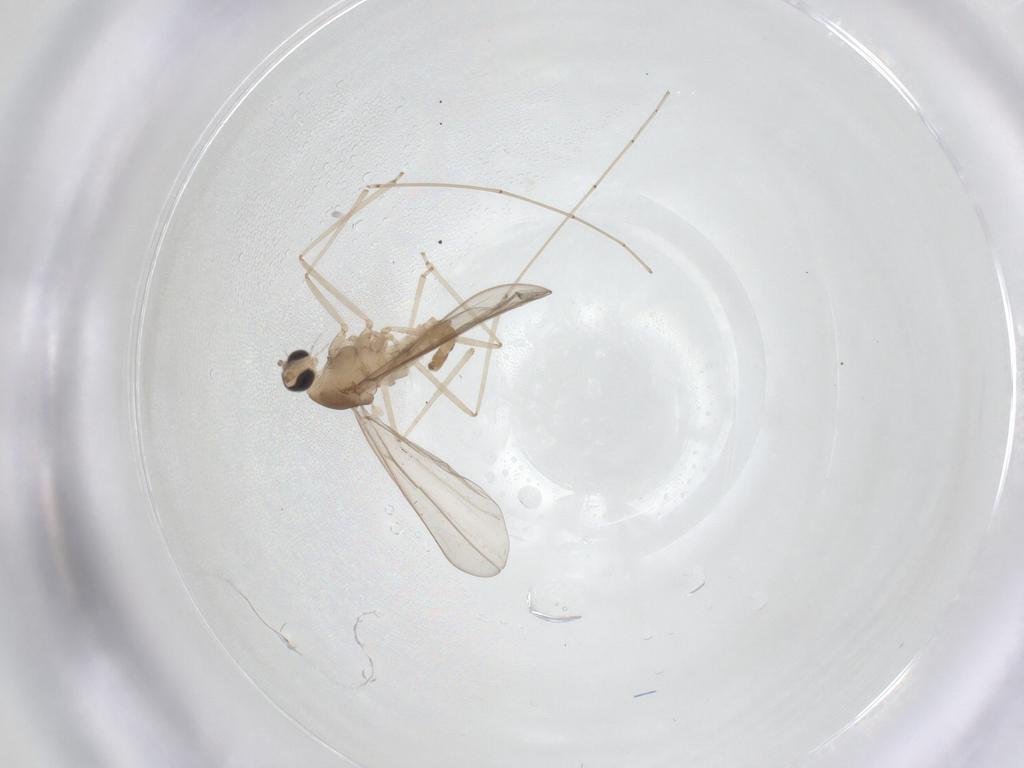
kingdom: Animalia
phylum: Arthropoda
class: Insecta
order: Diptera
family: Cecidomyiidae
